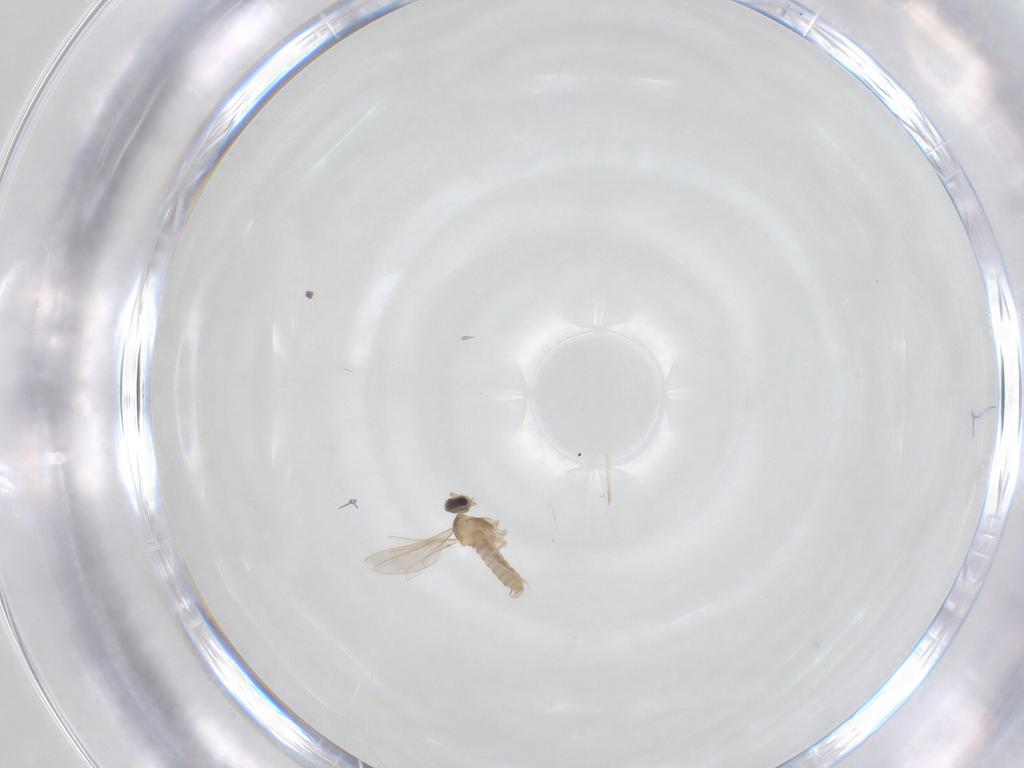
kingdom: Animalia
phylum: Arthropoda
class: Insecta
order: Diptera
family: Cecidomyiidae
